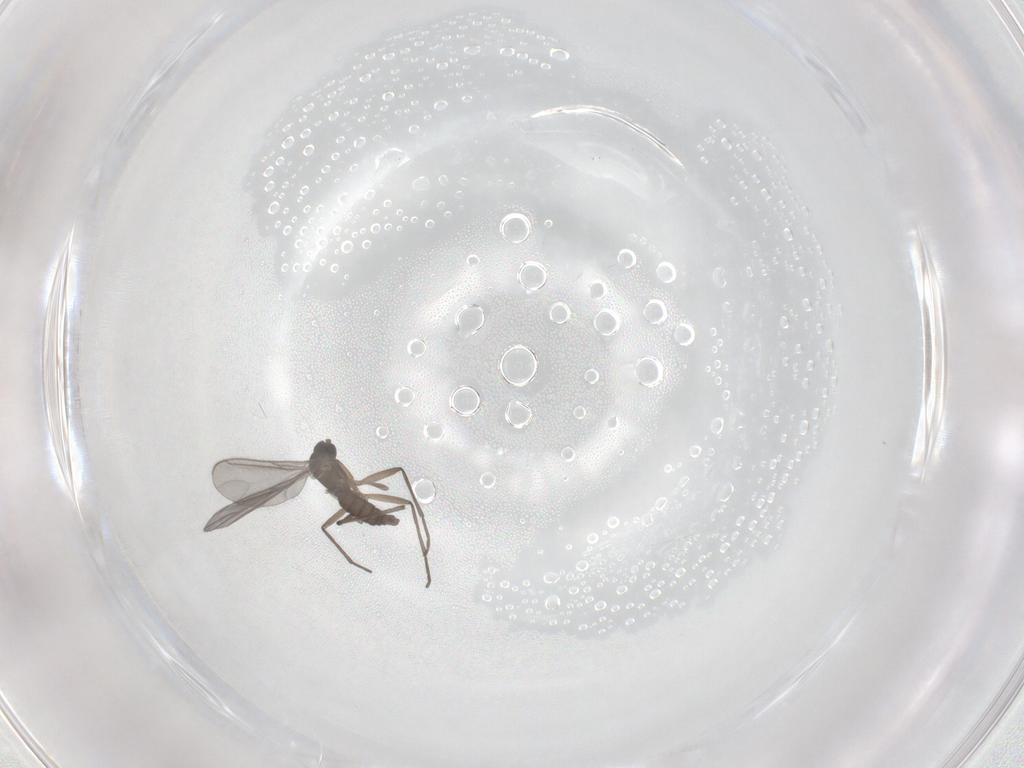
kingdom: Animalia
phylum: Arthropoda
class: Insecta
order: Diptera
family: Sciaridae
